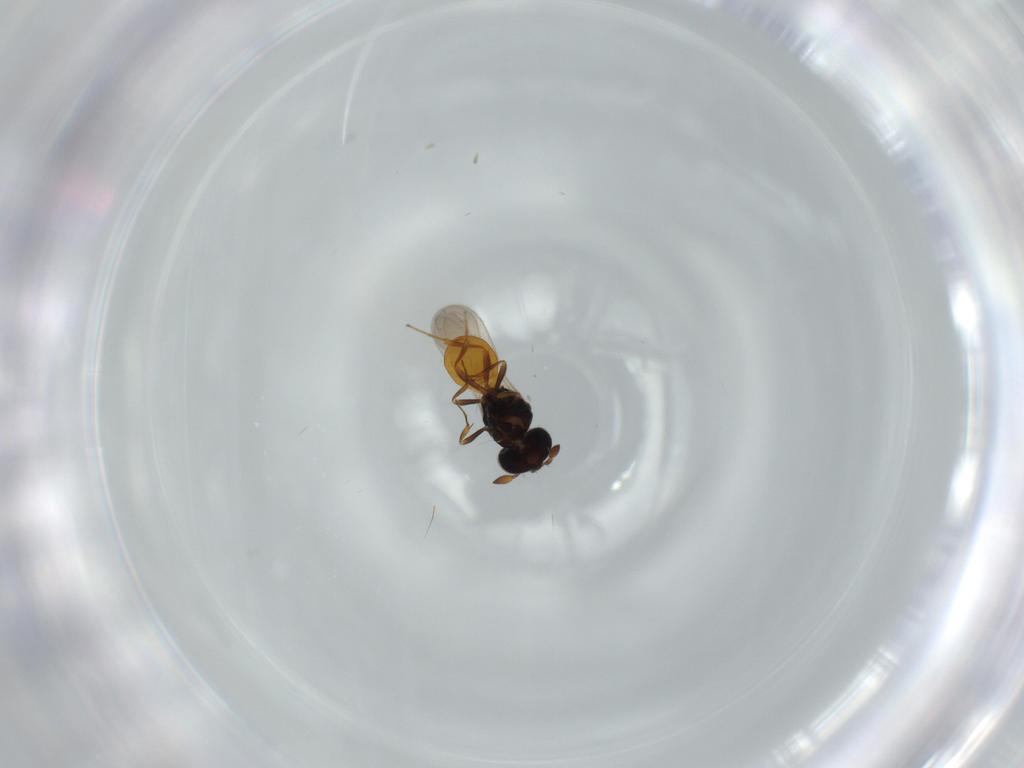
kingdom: Animalia
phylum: Arthropoda
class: Insecta
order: Hymenoptera
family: Scelionidae
